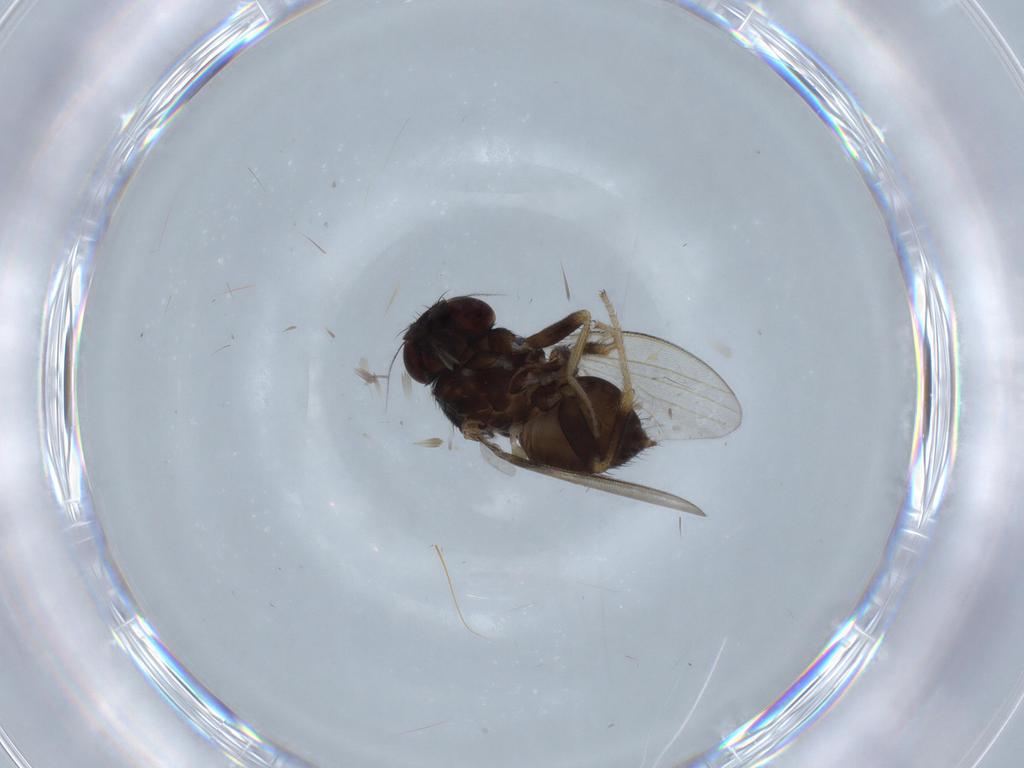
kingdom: Animalia
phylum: Arthropoda
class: Insecta
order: Diptera
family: Milichiidae
